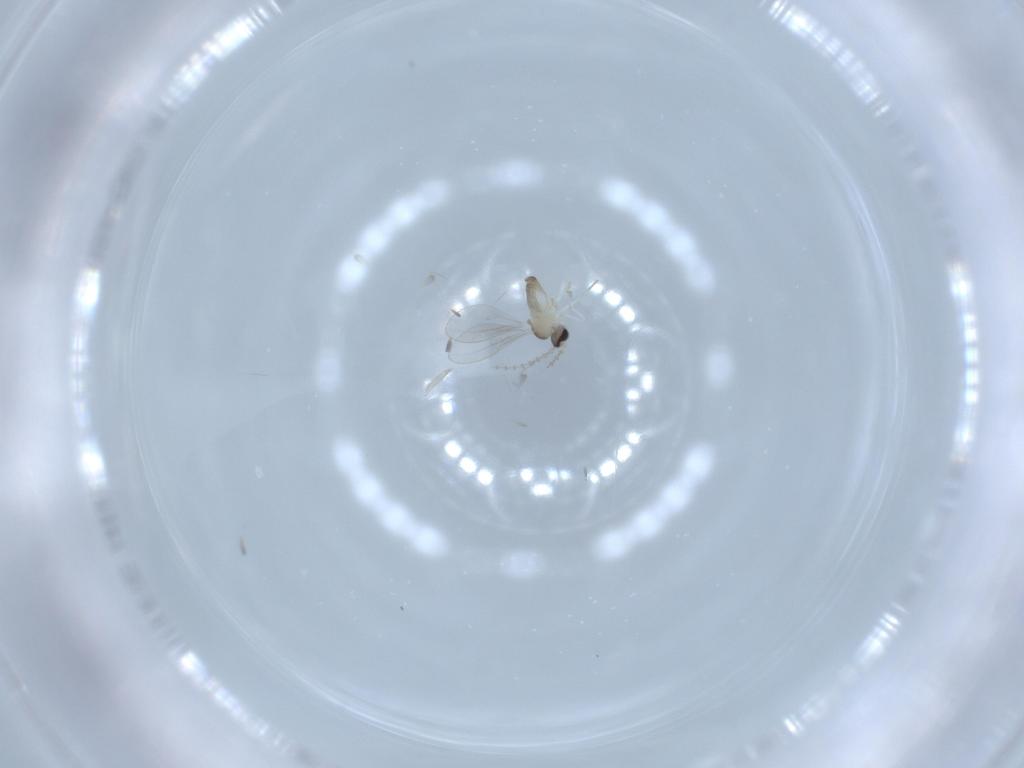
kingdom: Animalia
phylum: Arthropoda
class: Insecta
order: Diptera
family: Cecidomyiidae
